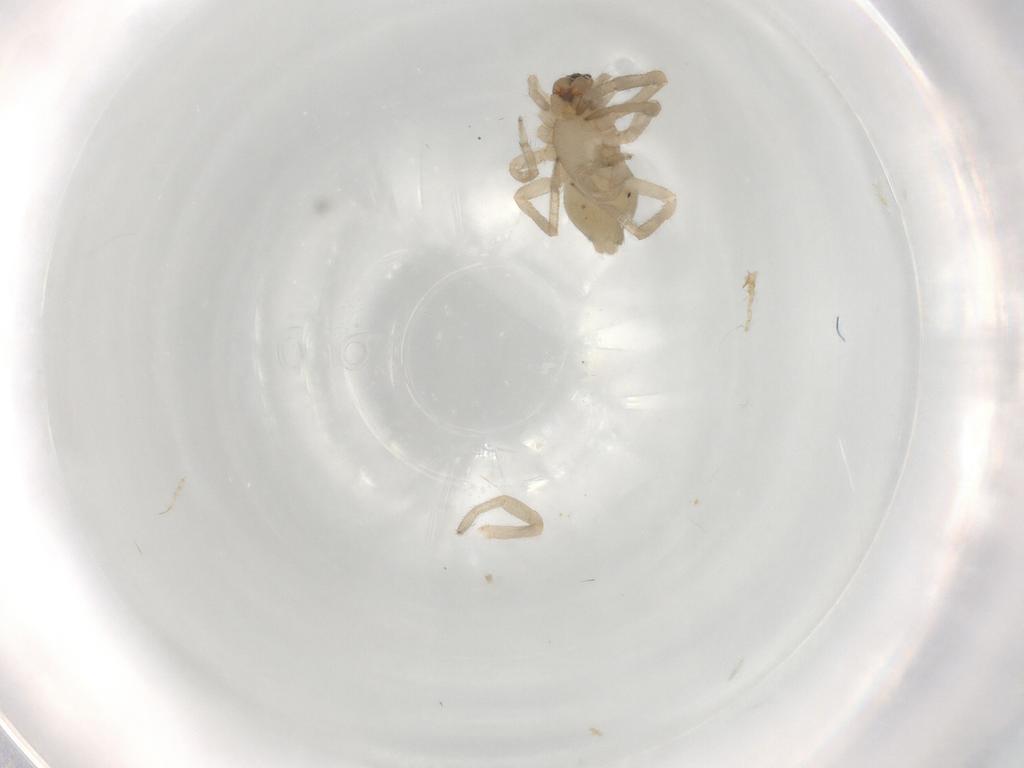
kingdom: Animalia
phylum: Arthropoda
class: Arachnida
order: Araneae
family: Trachelidae
